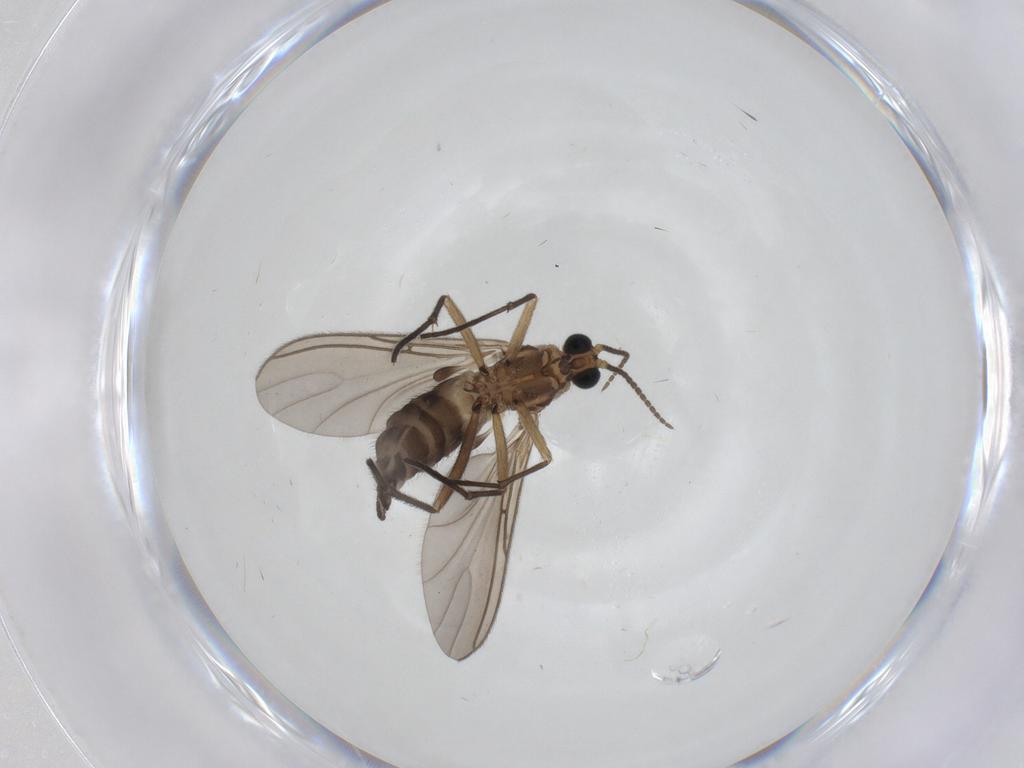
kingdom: Animalia
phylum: Arthropoda
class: Insecta
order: Diptera
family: Sciaridae
